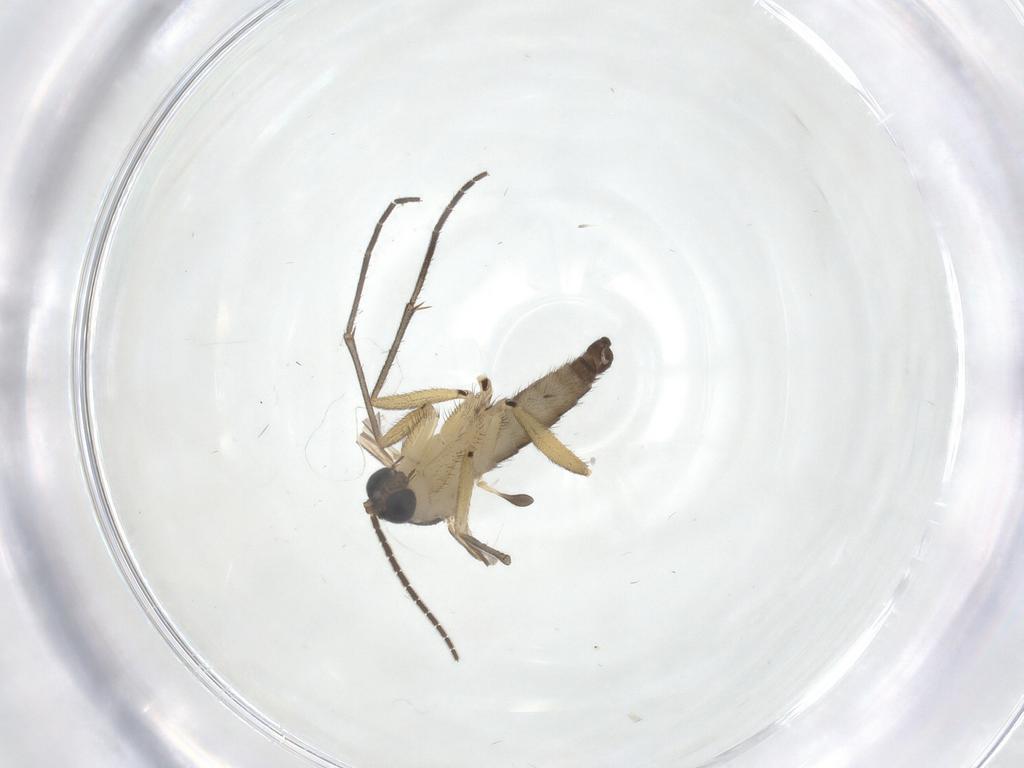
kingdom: Animalia
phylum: Arthropoda
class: Insecta
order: Diptera
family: Sciaridae
